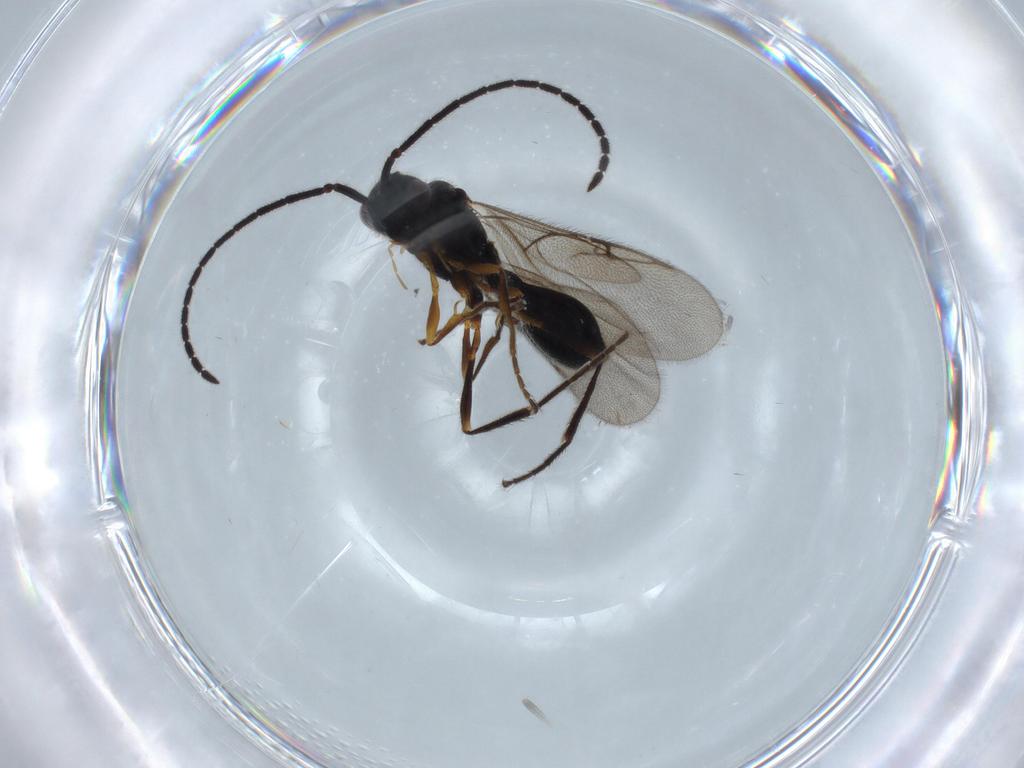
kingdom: Animalia
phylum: Arthropoda
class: Insecta
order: Hymenoptera
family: Diapriidae
